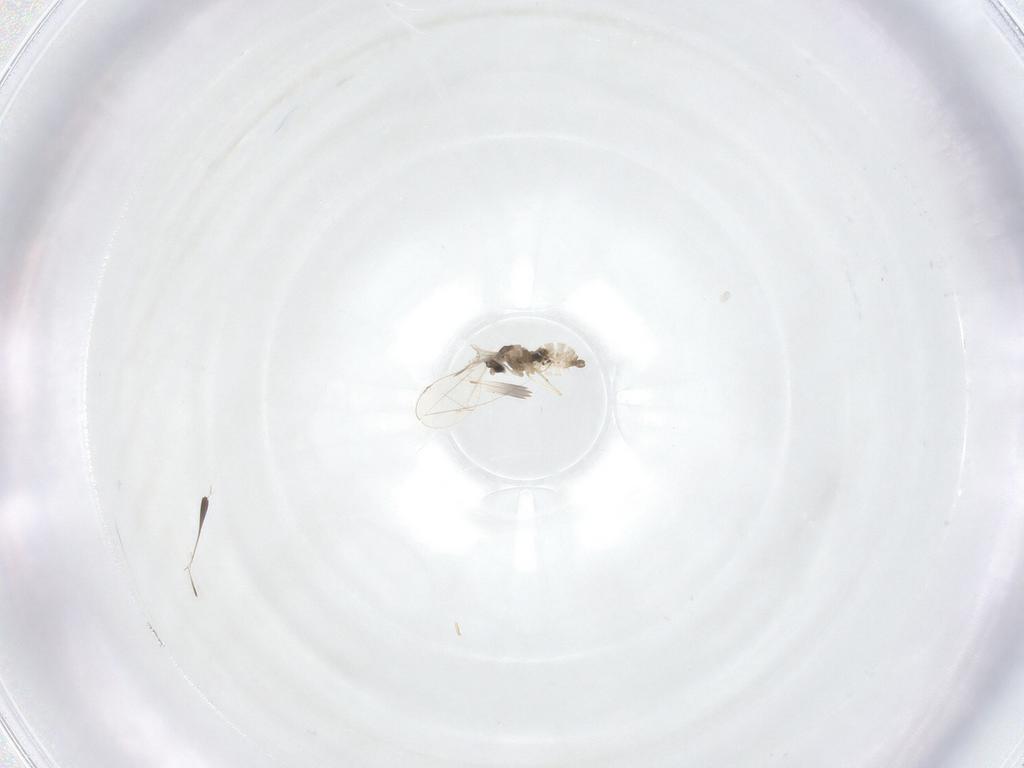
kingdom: Animalia
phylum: Arthropoda
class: Insecta
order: Diptera
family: Cecidomyiidae
